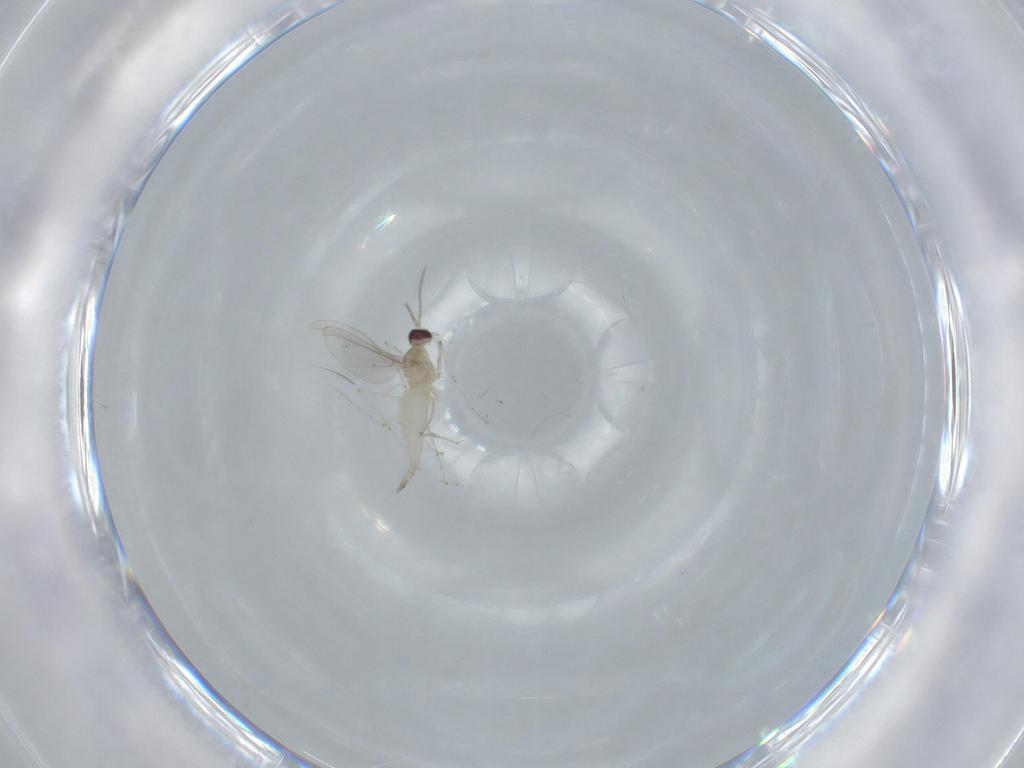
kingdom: Animalia
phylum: Arthropoda
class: Insecta
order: Diptera
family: Cecidomyiidae
